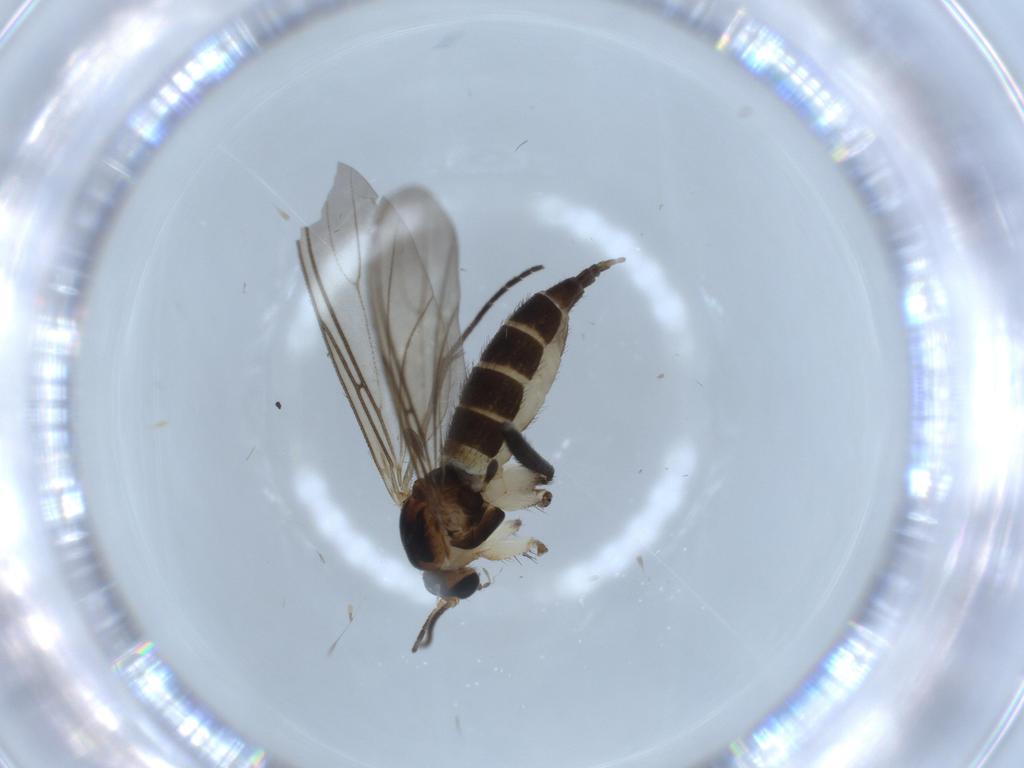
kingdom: Animalia
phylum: Arthropoda
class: Insecta
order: Diptera
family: Sciaridae
